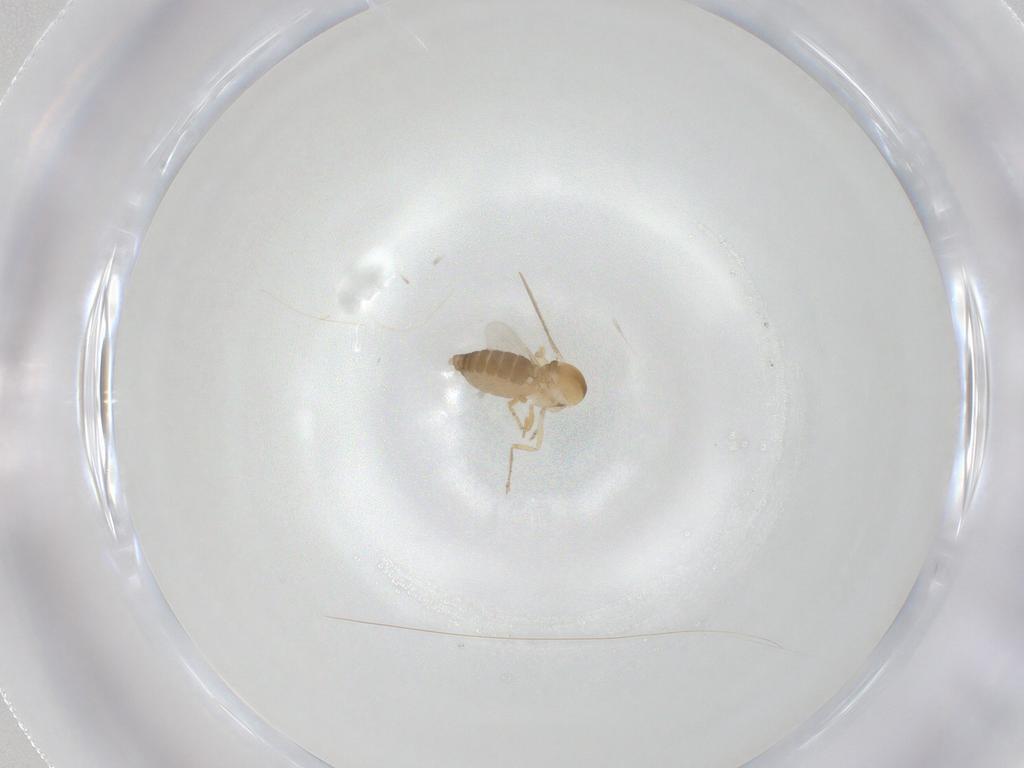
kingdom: Animalia
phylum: Arthropoda
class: Insecta
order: Diptera
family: Ceratopogonidae
